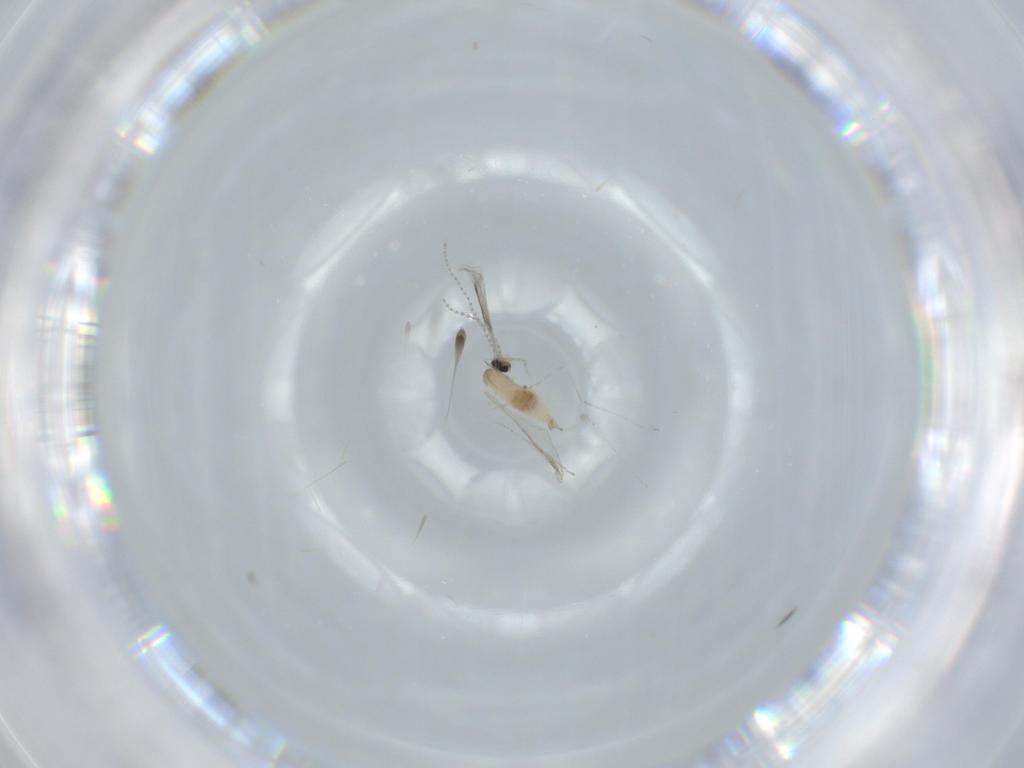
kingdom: Animalia
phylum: Arthropoda
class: Insecta
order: Diptera
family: Cecidomyiidae
